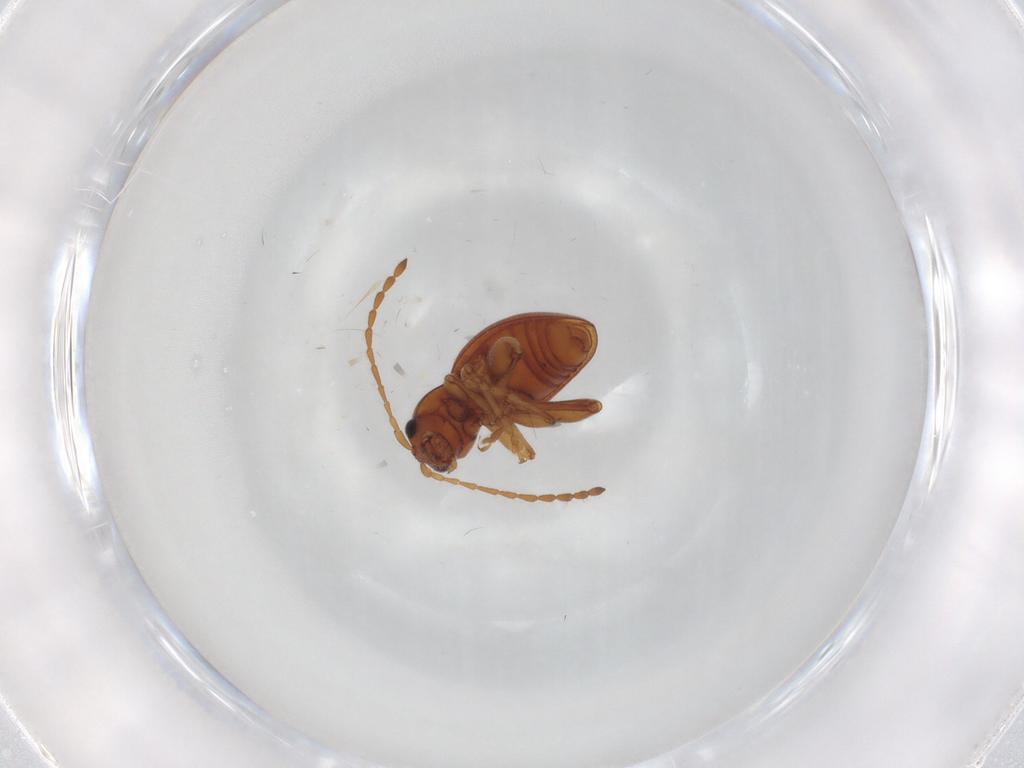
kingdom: Animalia
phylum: Arthropoda
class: Insecta
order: Coleoptera
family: Chrysomelidae
